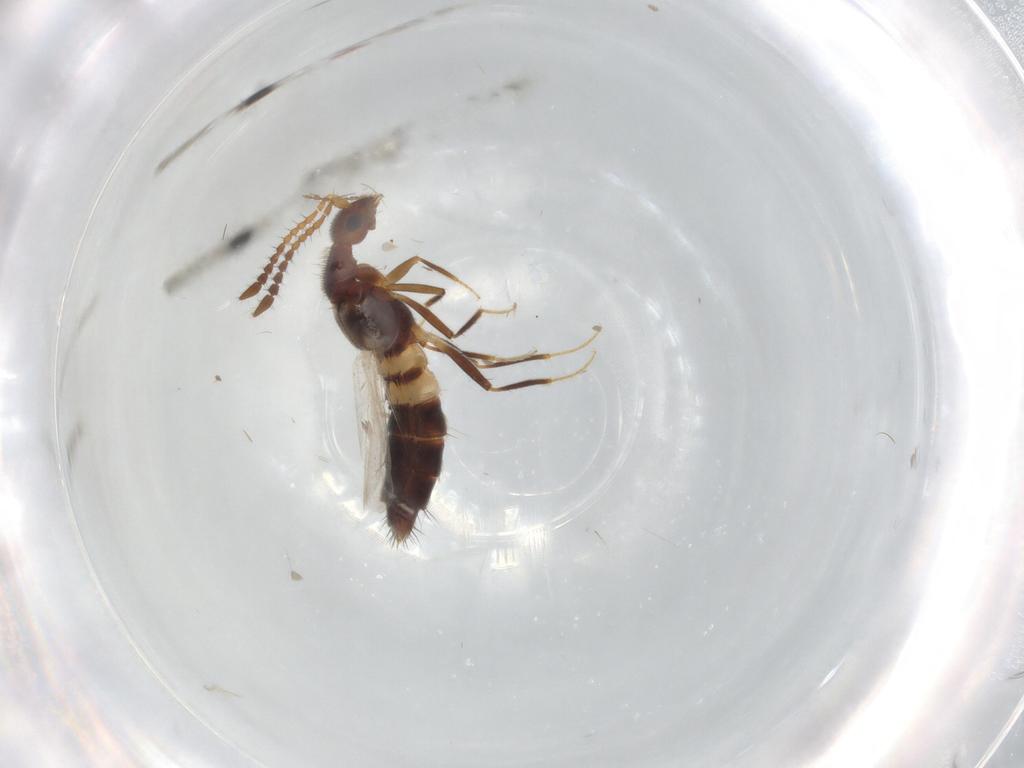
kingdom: Animalia
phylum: Arthropoda
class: Insecta
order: Coleoptera
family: Staphylinidae
